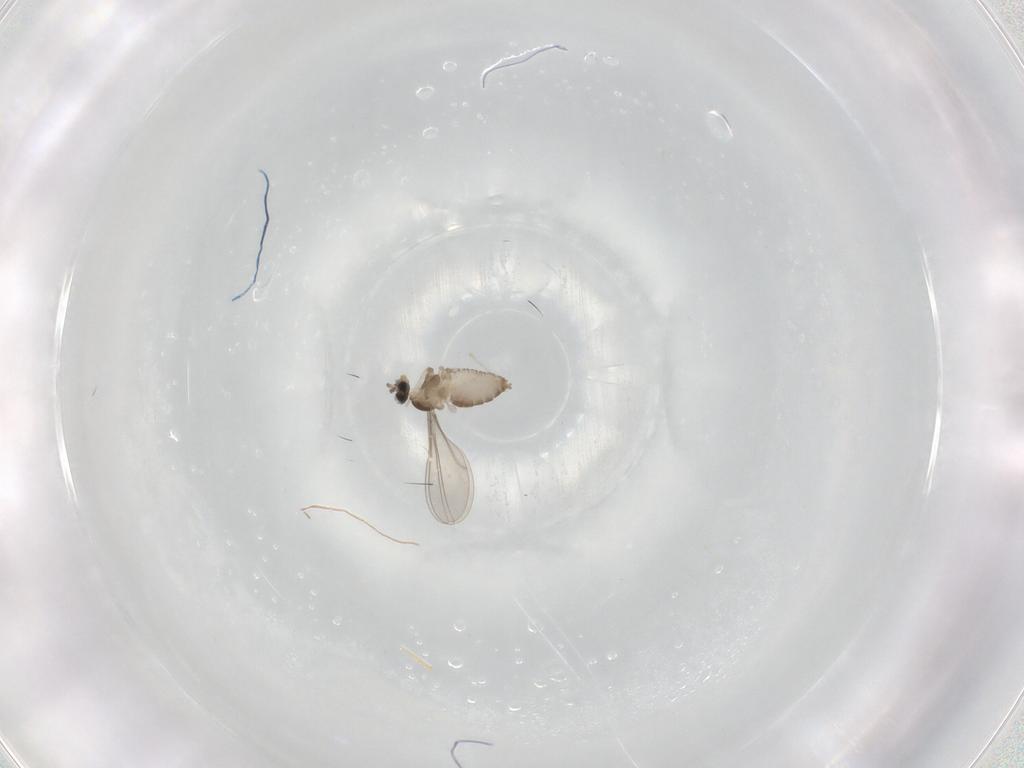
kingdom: Animalia
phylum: Arthropoda
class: Insecta
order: Diptera
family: Cecidomyiidae
